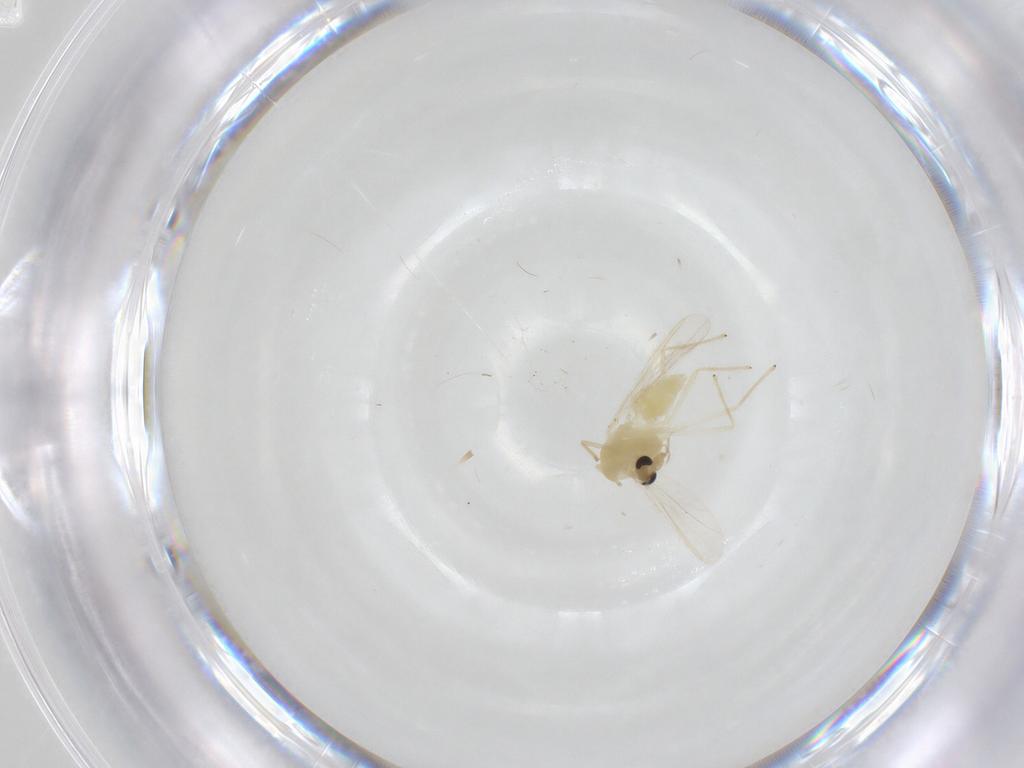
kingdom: Animalia
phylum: Arthropoda
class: Insecta
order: Diptera
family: Chironomidae
